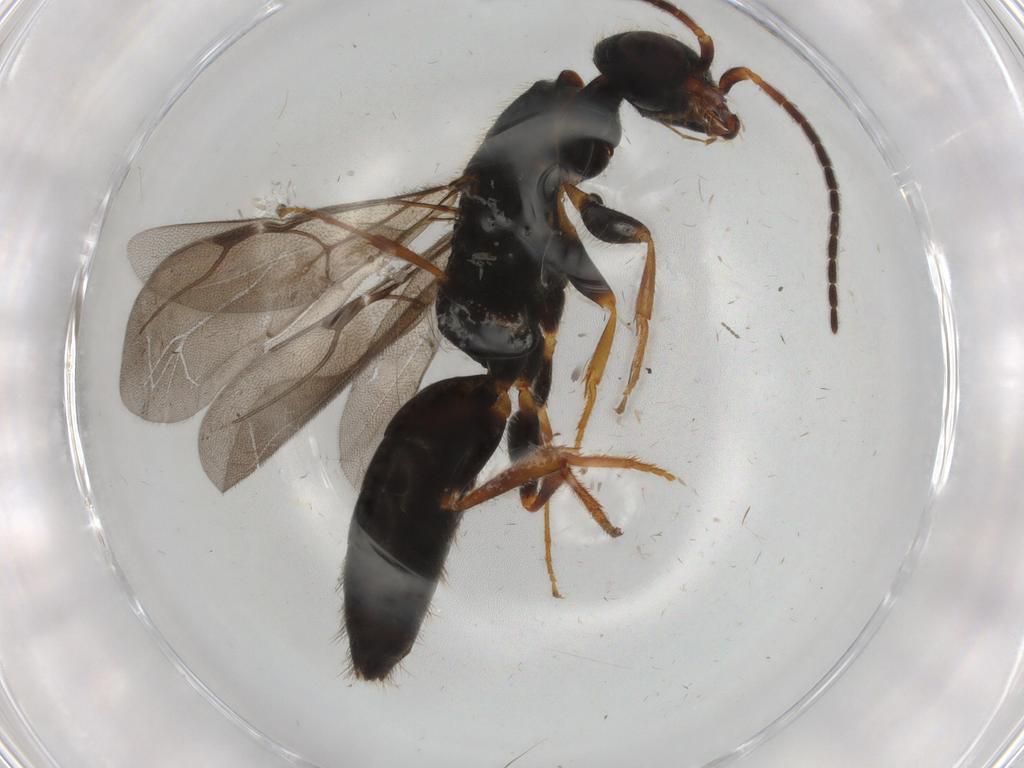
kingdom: Animalia
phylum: Arthropoda
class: Insecta
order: Hymenoptera
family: Bethylidae
